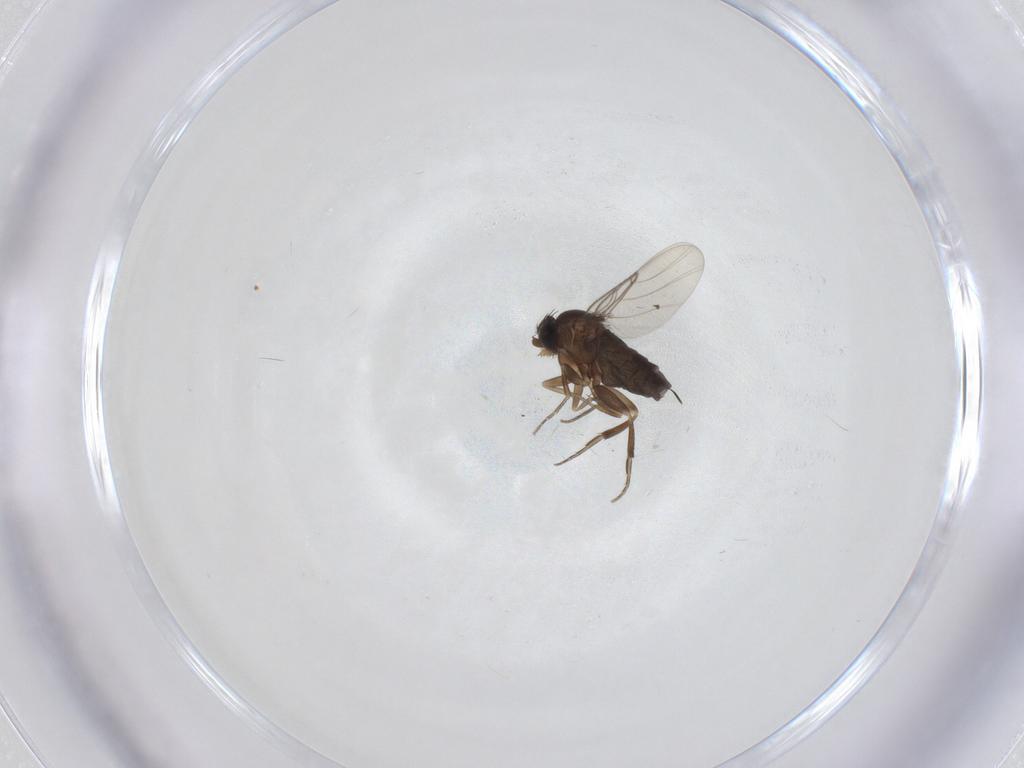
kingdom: Animalia
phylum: Arthropoda
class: Insecta
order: Diptera
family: Phoridae
